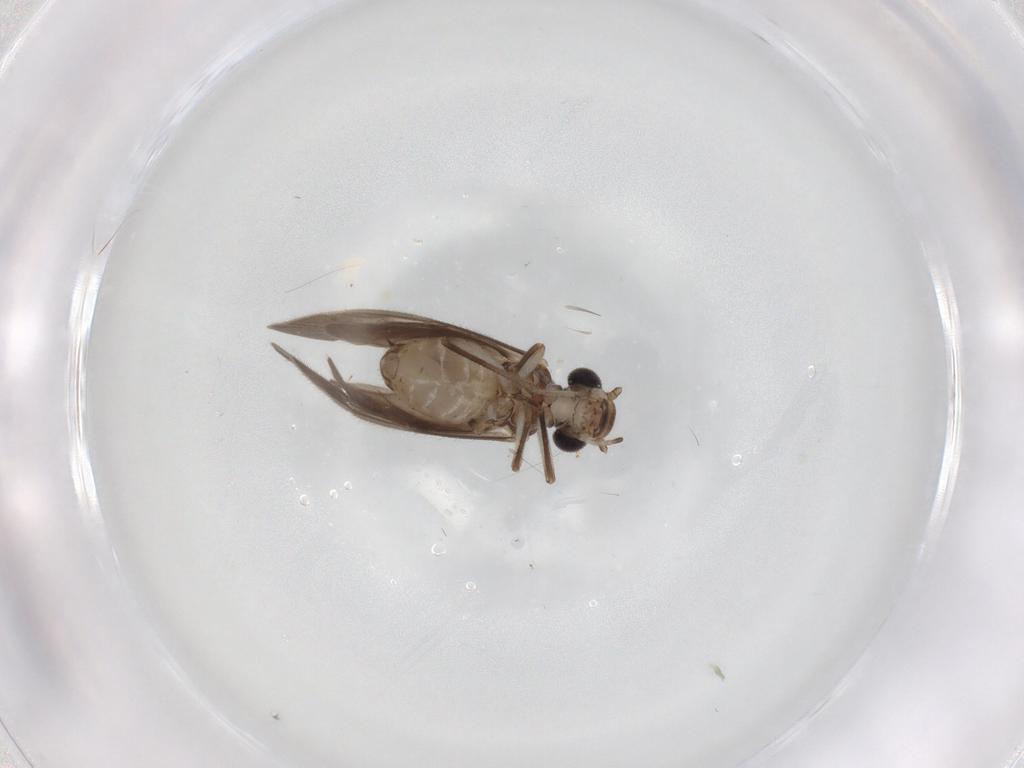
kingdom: Animalia
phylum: Arthropoda
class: Insecta
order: Psocodea
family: Caeciliusidae
